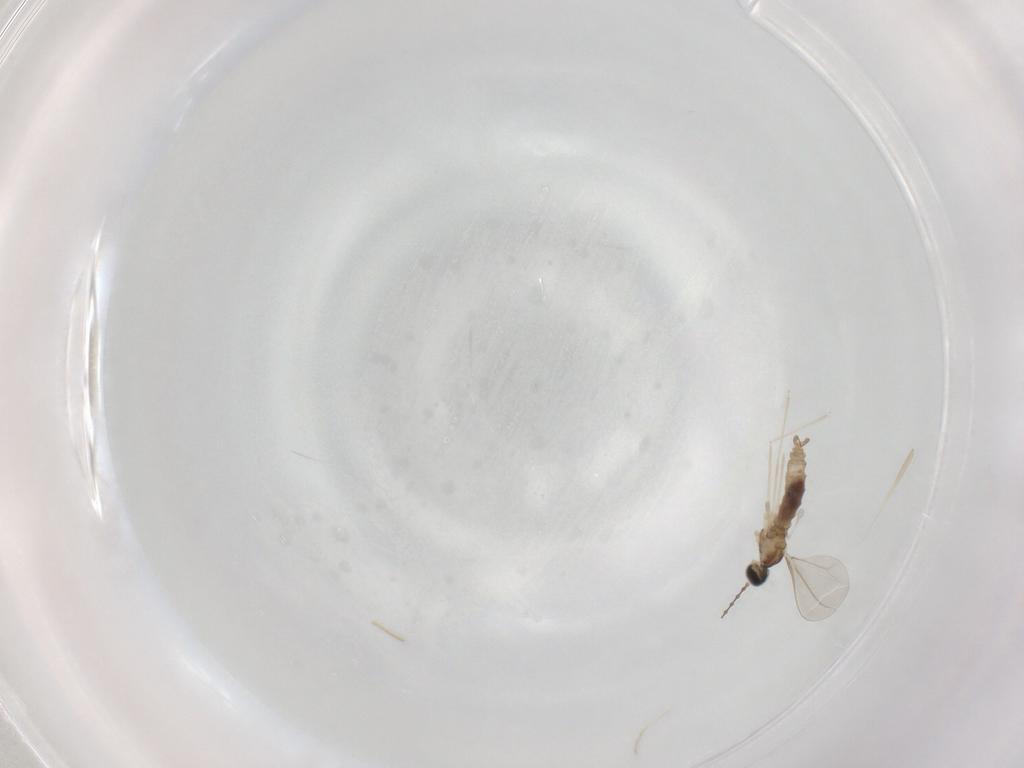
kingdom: Animalia
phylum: Arthropoda
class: Insecta
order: Diptera
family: Cecidomyiidae
